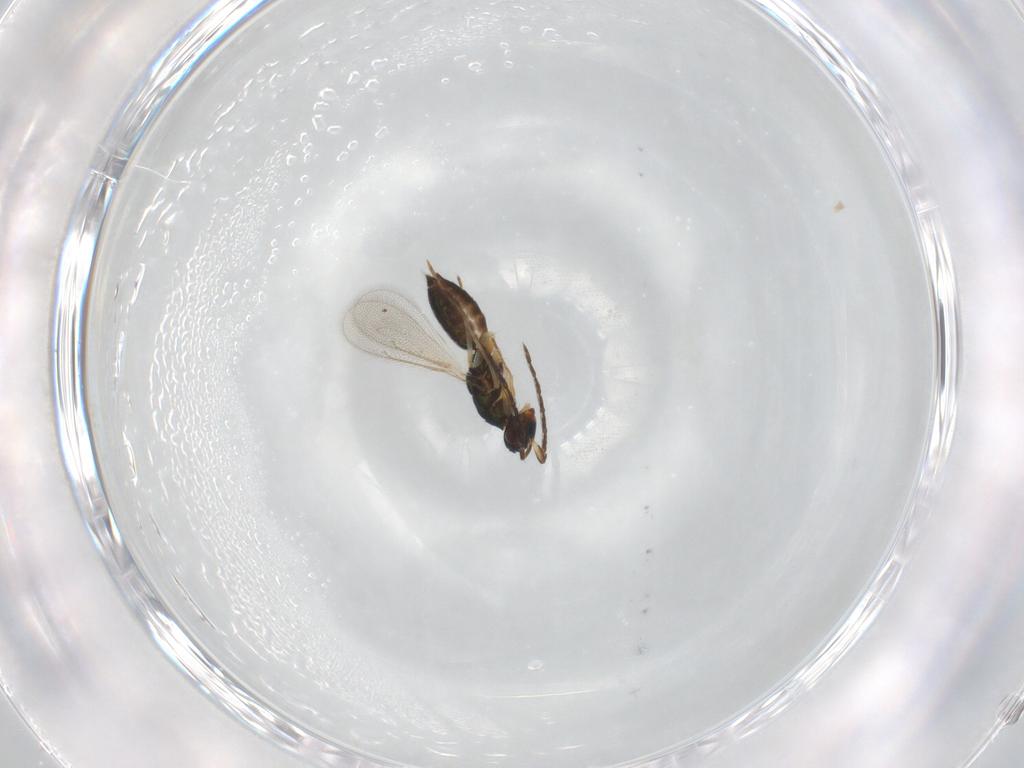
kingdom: Animalia
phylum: Arthropoda
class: Insecta
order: Hymenoptera
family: Eulophidae
